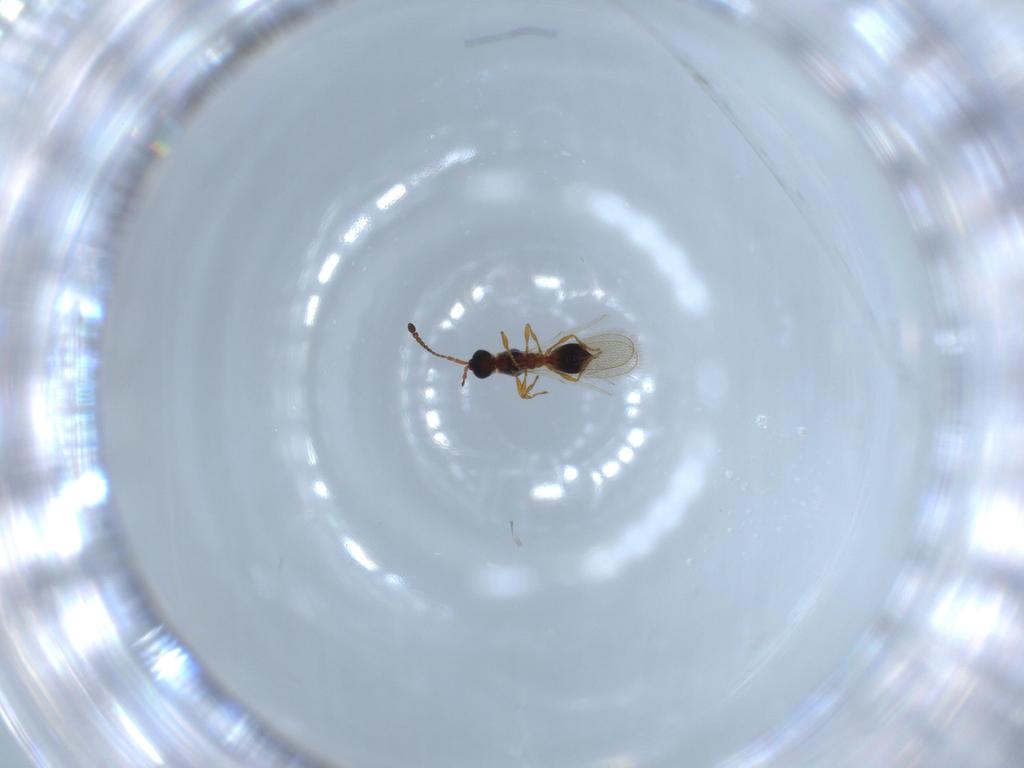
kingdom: Animalia
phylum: Arthropoda
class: Insecta
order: Hymenoptera
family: Diapriidae
